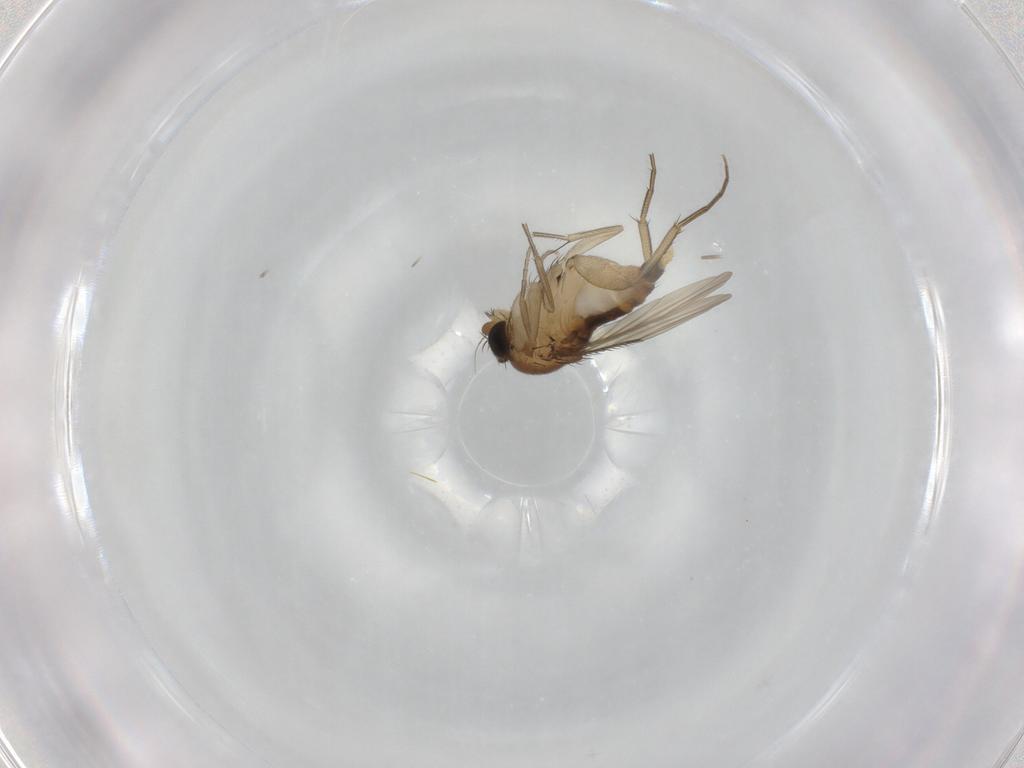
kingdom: Animalia
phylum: Arthropoda
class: Insecta
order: Diptera
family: Phoridae
